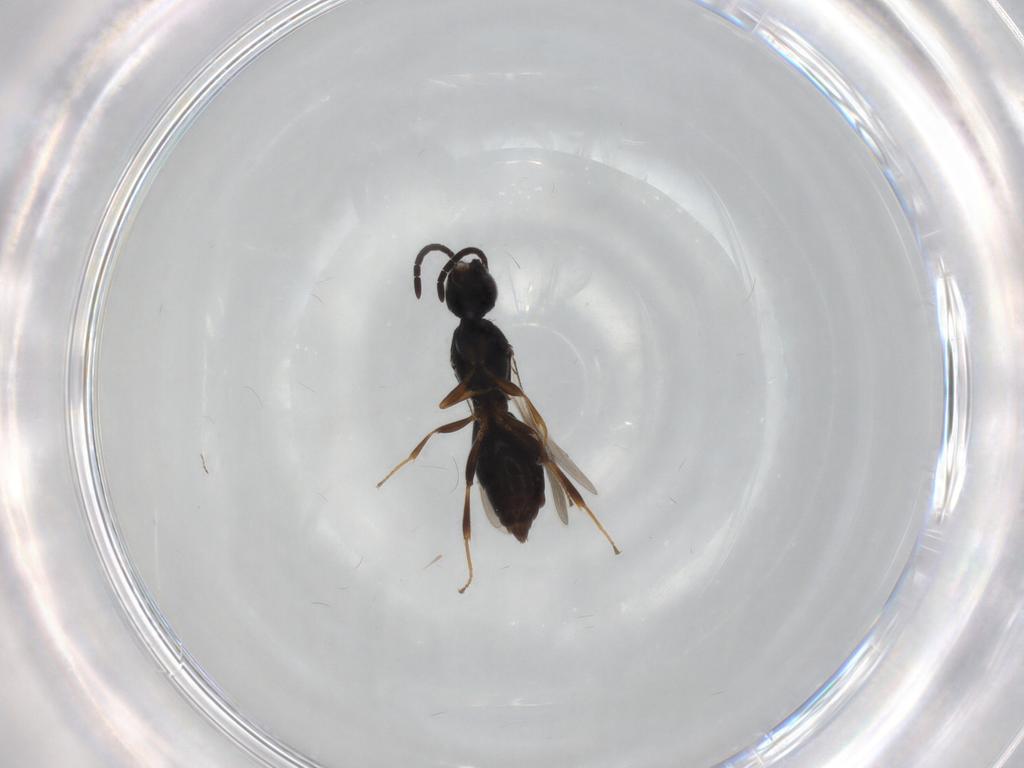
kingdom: Animalia
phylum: Arthropoda
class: Insecta
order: Hymenoptera
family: Megaspilidae
